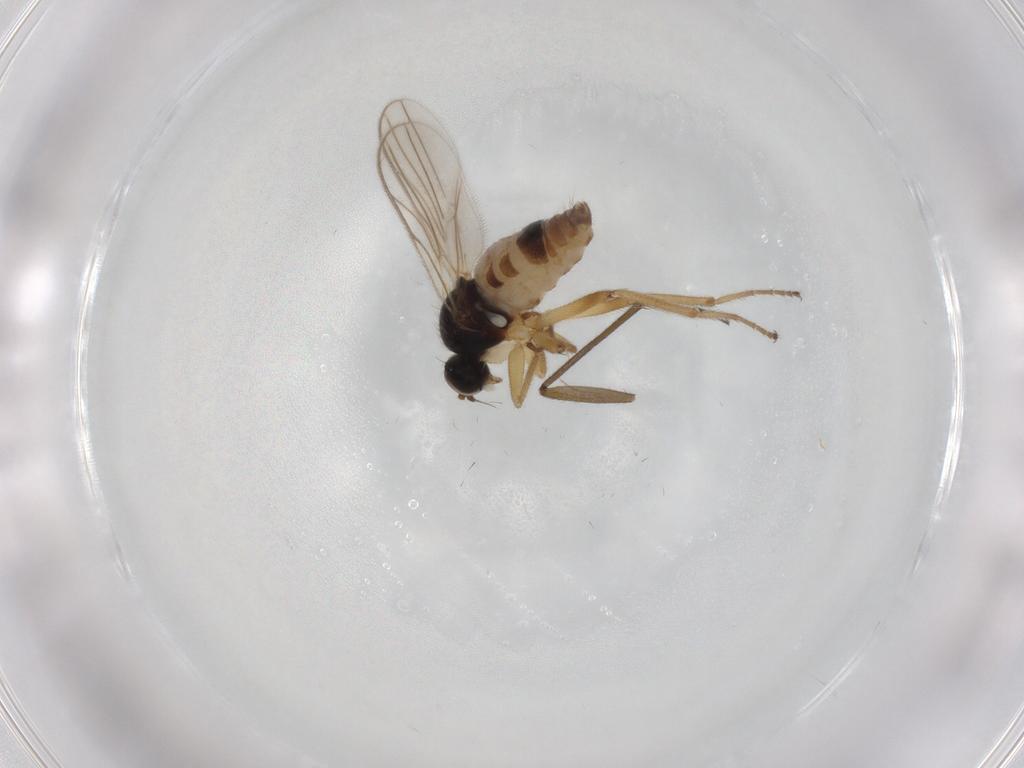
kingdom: Animalia
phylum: Arthropoda
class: Insecta
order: Diptera
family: Hybotidae
